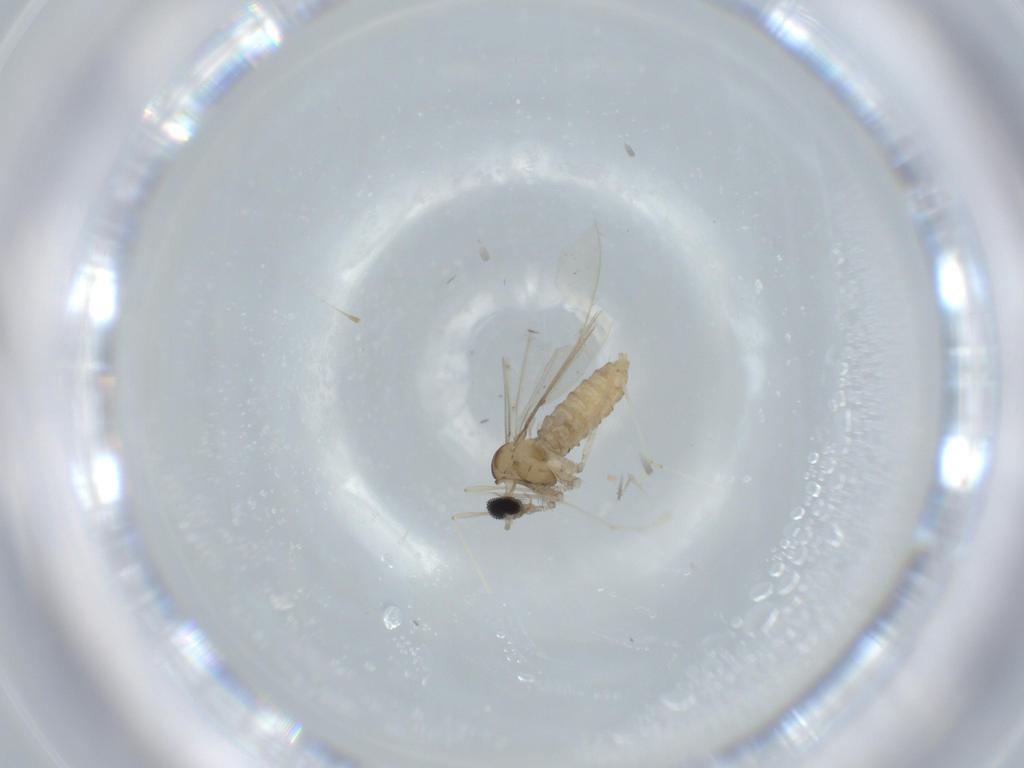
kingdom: Animalia
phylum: Arthropoda
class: Insecta
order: Diptera
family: Cecidomyiidae
